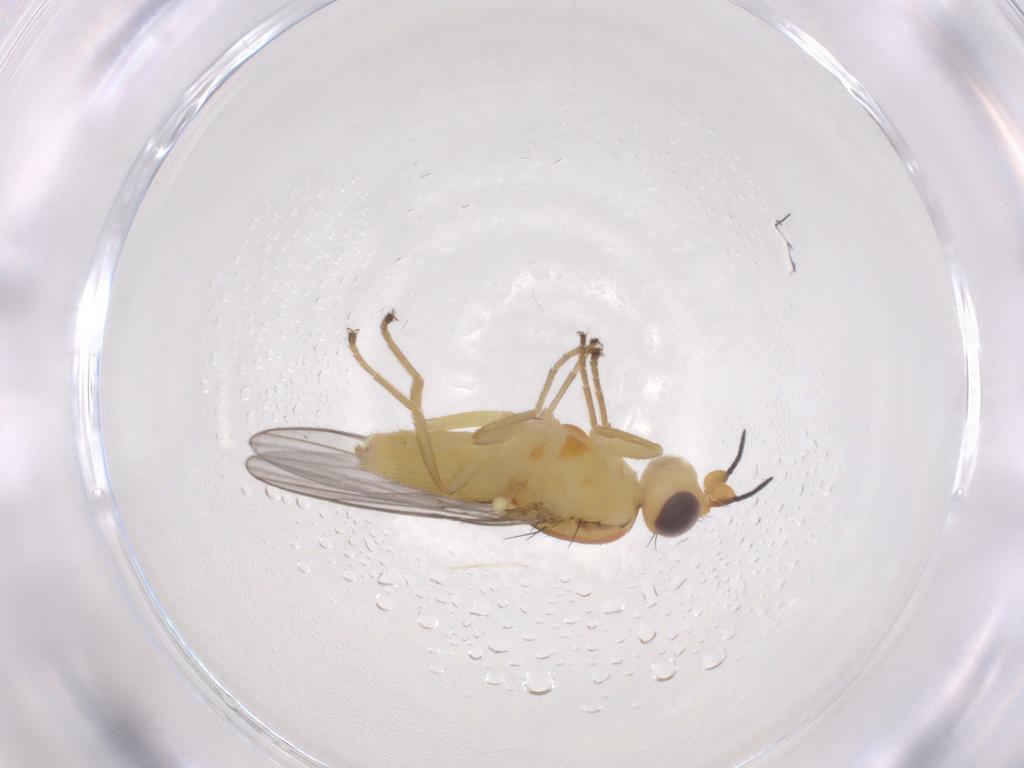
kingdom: Animalia
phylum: Arthropoda
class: Insecta
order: Diptera
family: Chloropidae
